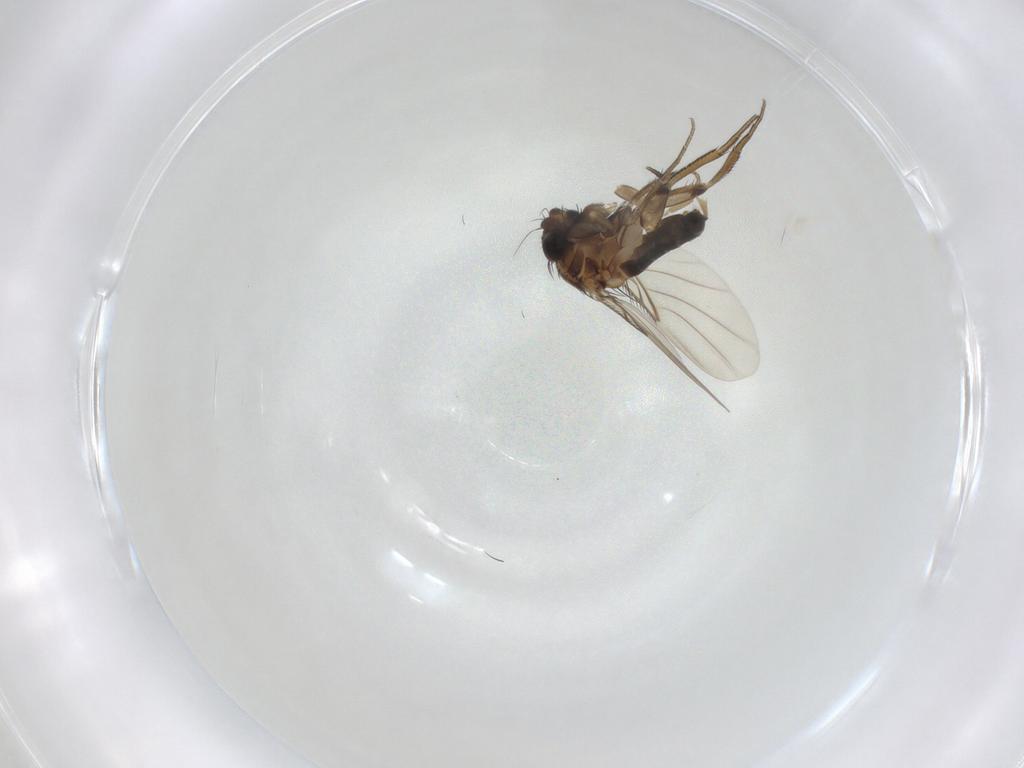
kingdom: Animalia
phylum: Arthropoda
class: Insecta
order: Diptera
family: Phoridae
